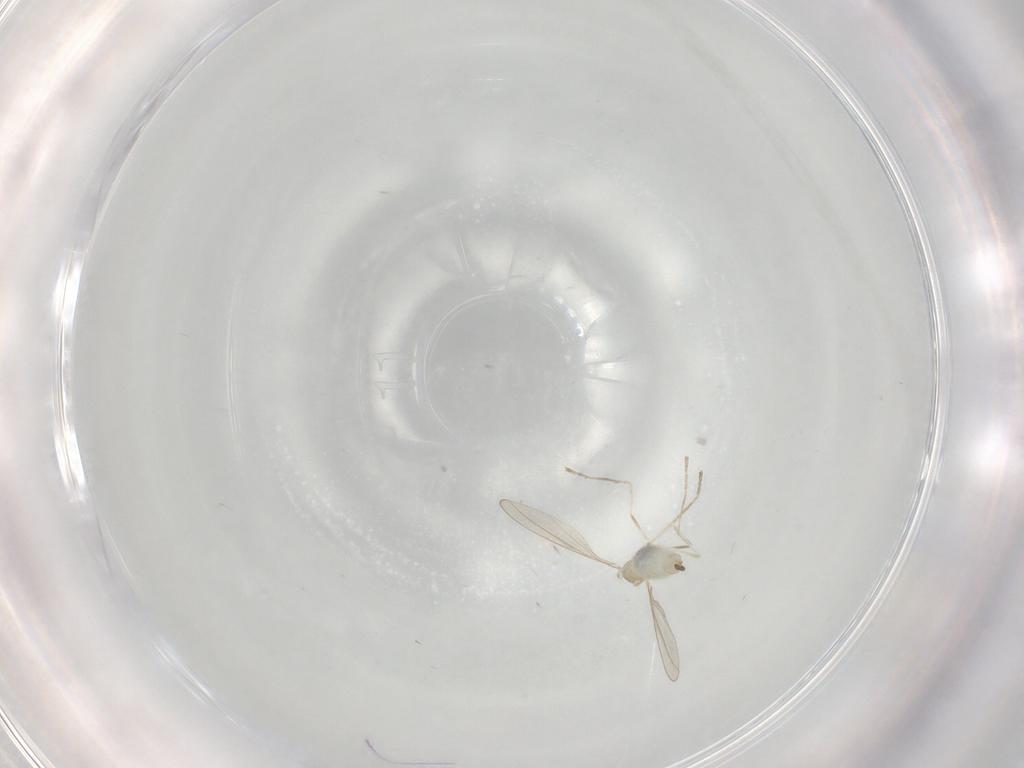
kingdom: Animalia
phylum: Arthropoda
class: Insecta
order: Diptera
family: Cecidomyiidae
